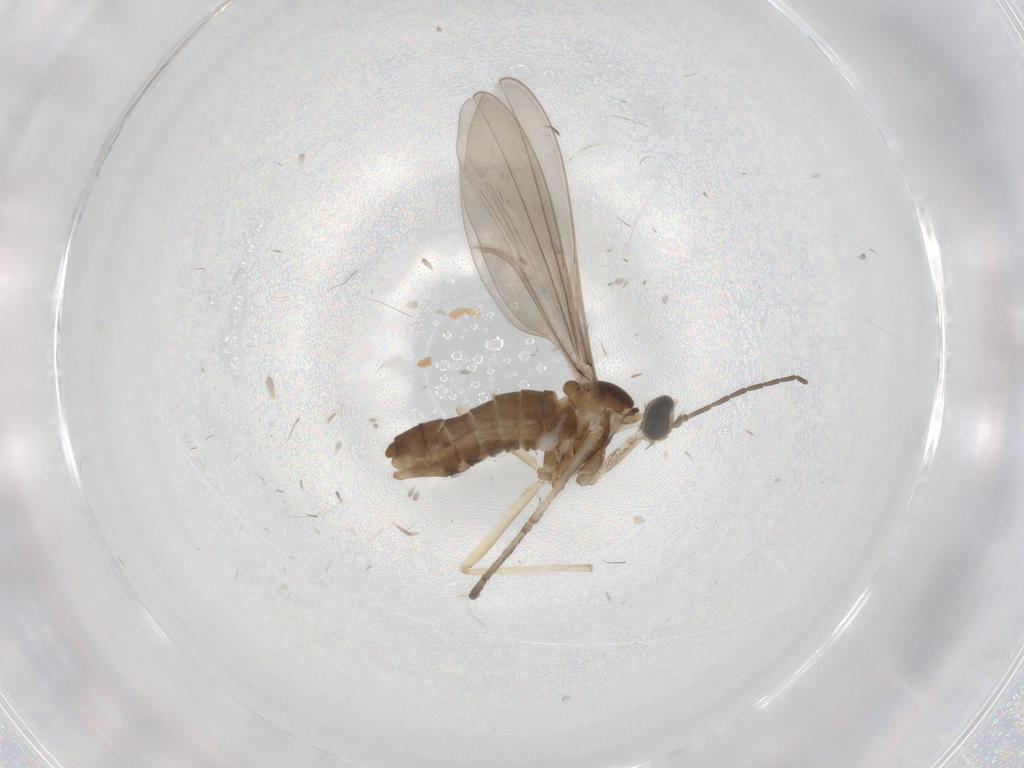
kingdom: Animalia
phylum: Arthropoda
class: Insecta
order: Diptera
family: Cecidomyiidae
